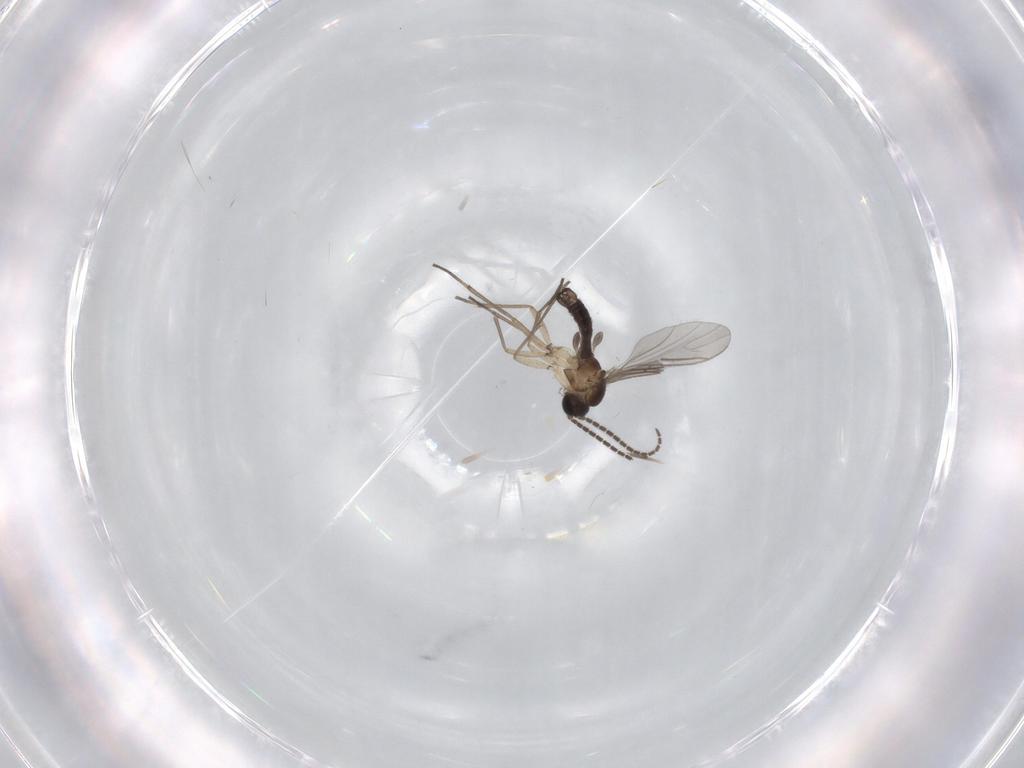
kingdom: Animalia
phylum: Arthropoda
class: Insecta
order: Diptera
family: Sciaridae
